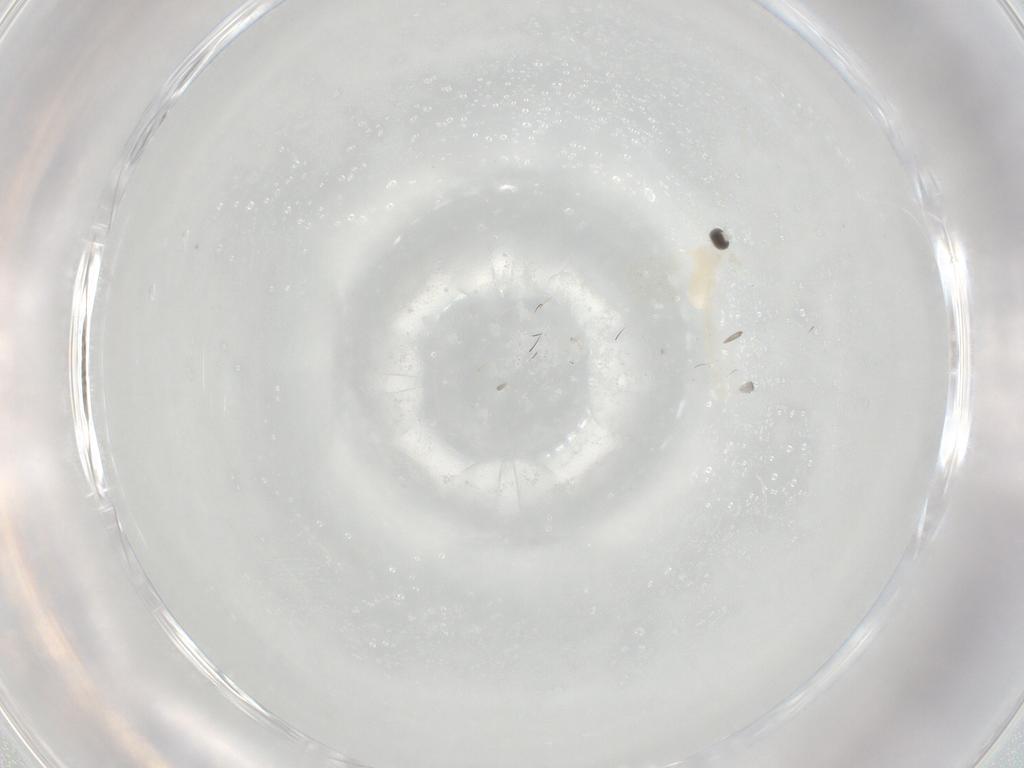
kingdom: Animalia
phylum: Arthropoda
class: Insecta
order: Diptera
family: Cecidomyiidae
